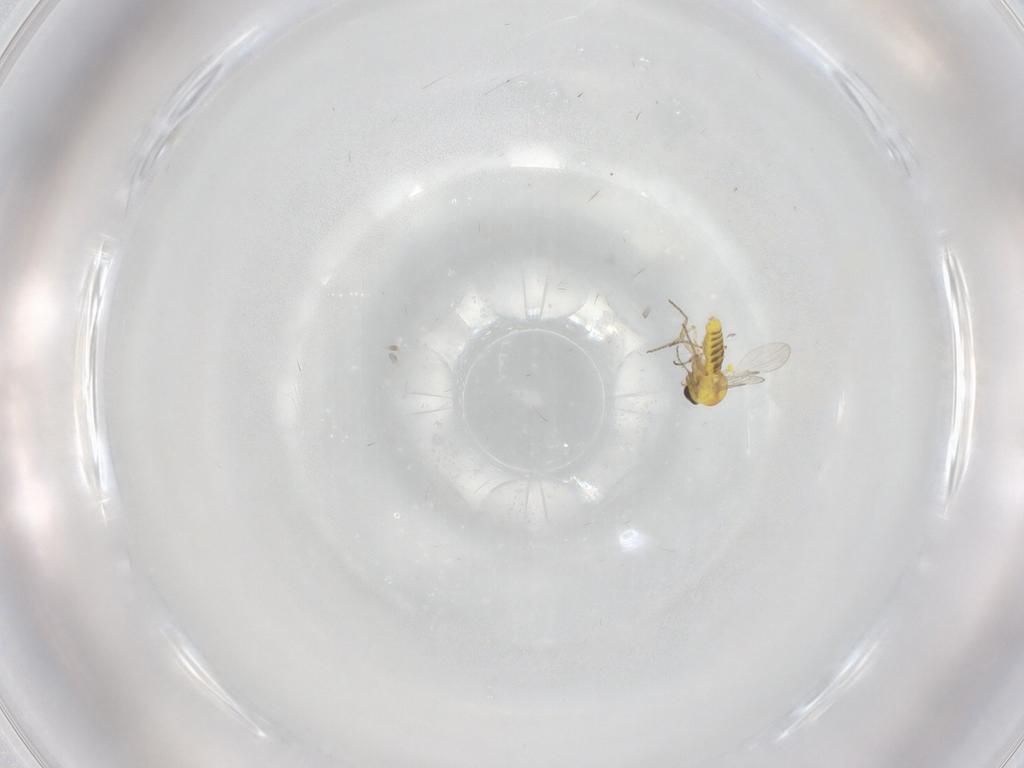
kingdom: Animalia
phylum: Arthropoda
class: Insecta
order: Diptera
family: Ceratopogonidae
